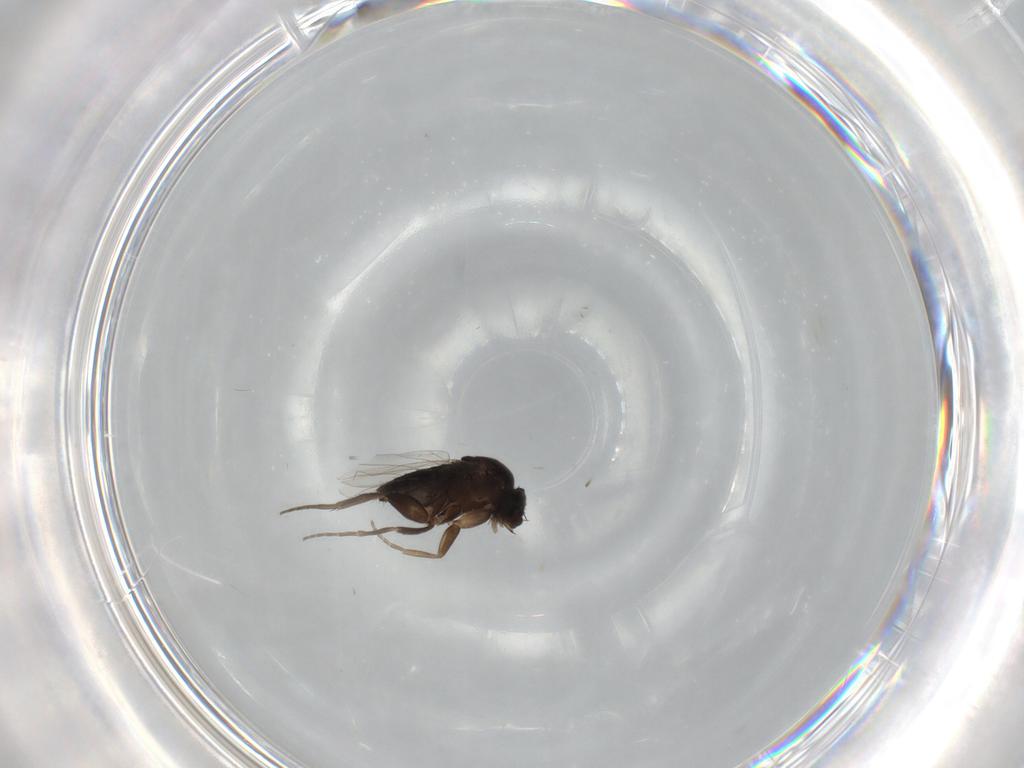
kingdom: Animalia
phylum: Arthropoda
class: Insecta
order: Diptera
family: Phoridae
